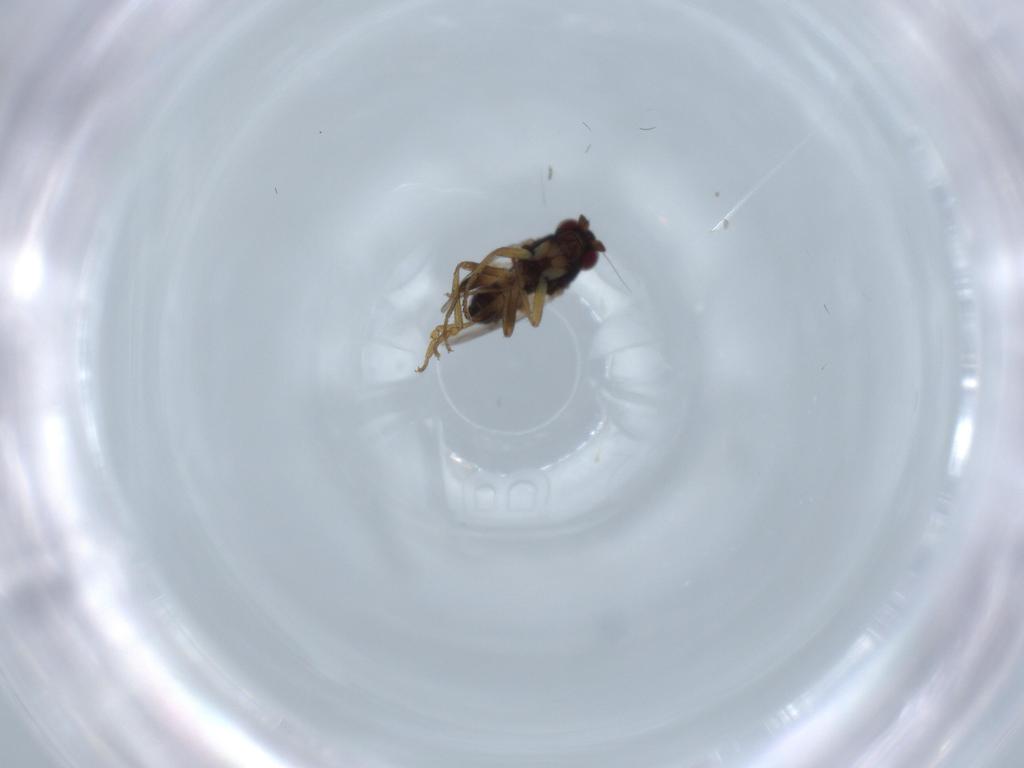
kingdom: Animalia
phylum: Arthropoda
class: Insecta
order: Diptera
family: Sphaeroceridae
